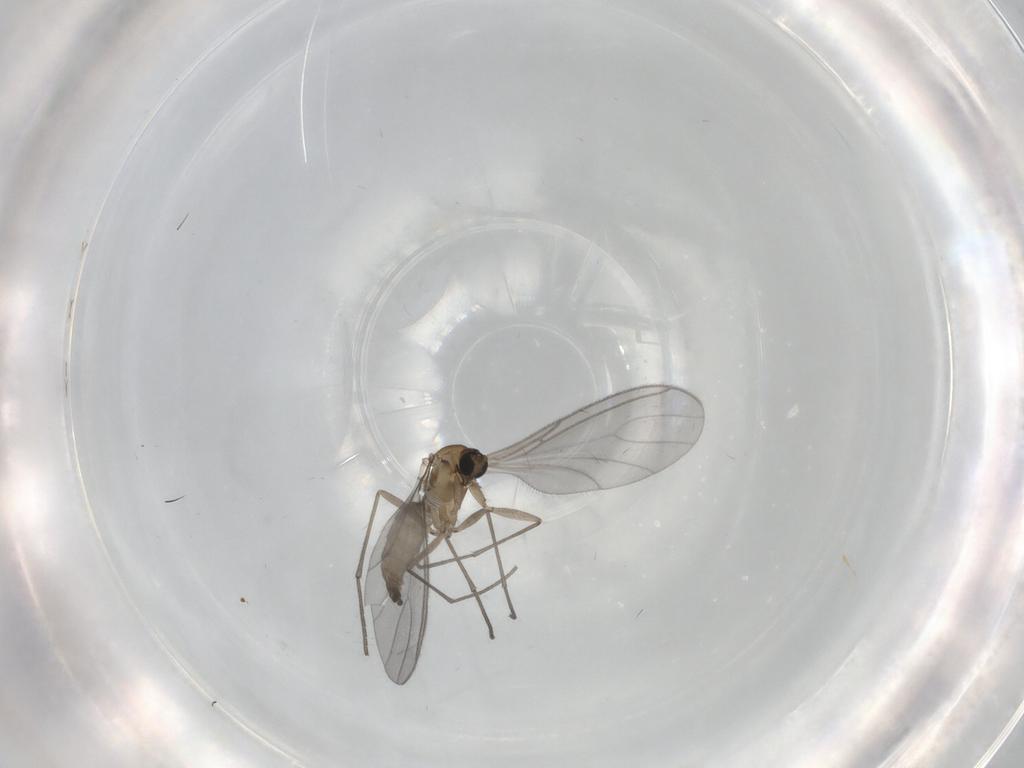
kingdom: Animalia
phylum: Arthropoda
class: Insecta
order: Diptera
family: Sciaridae
